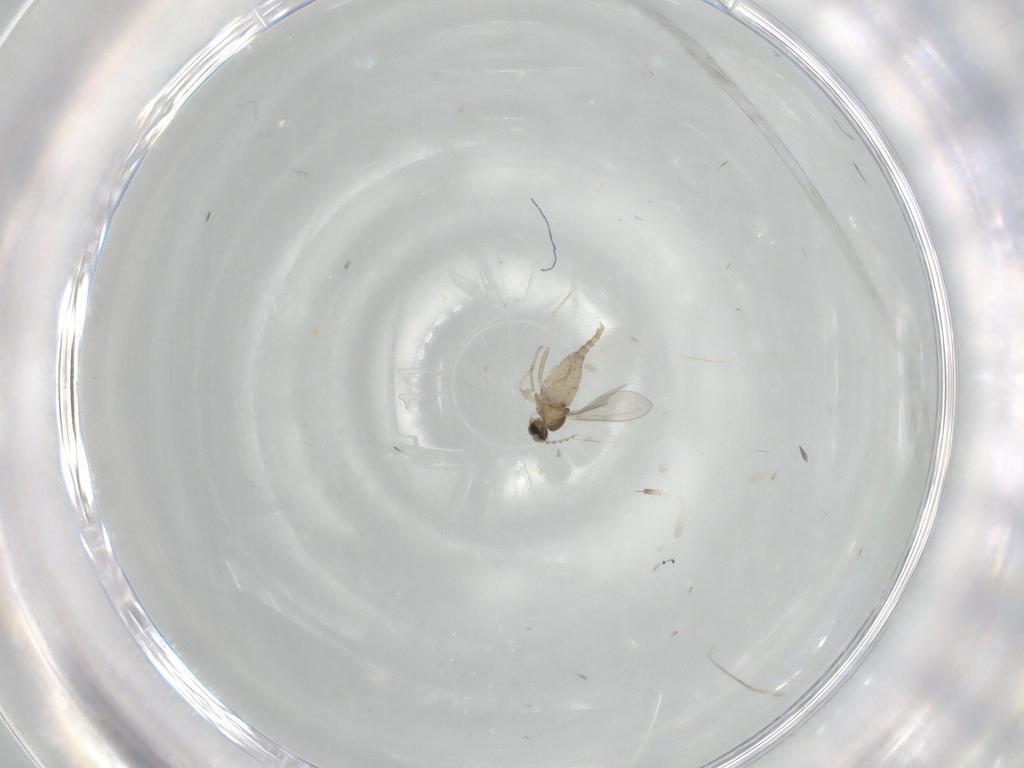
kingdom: Animalia
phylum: Arthropoda
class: Insecta
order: Diptera
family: Cecidomyiidae
